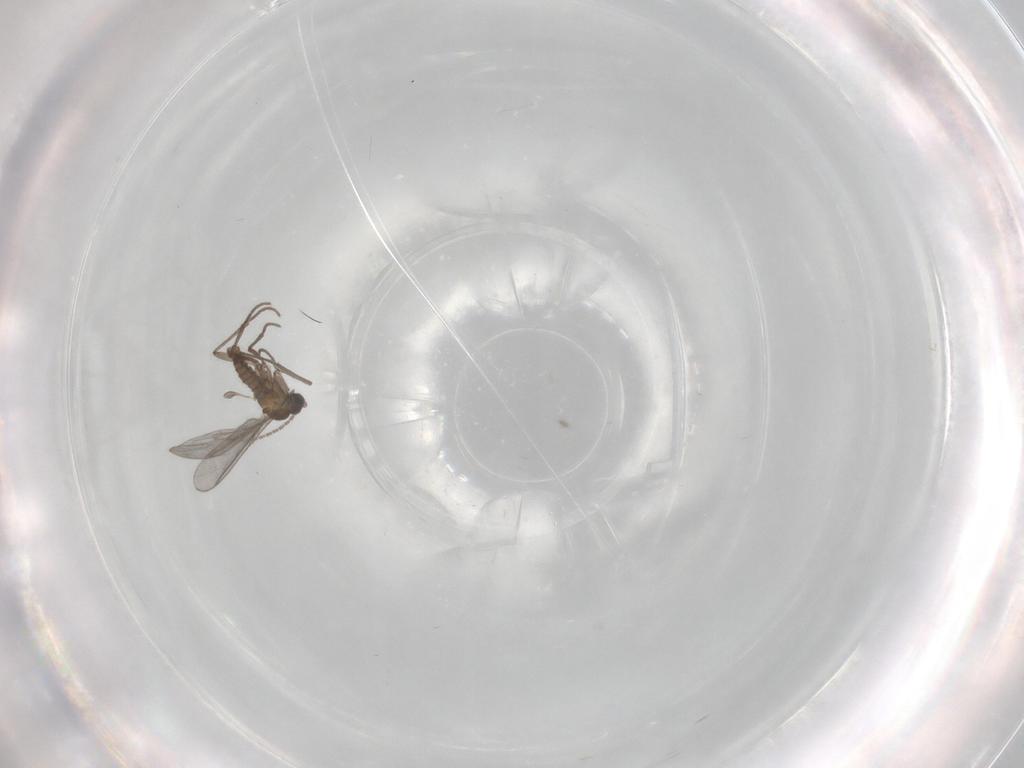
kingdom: Animalia
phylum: Arthropoda
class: Insecta
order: Diptera
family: Sciaridae
